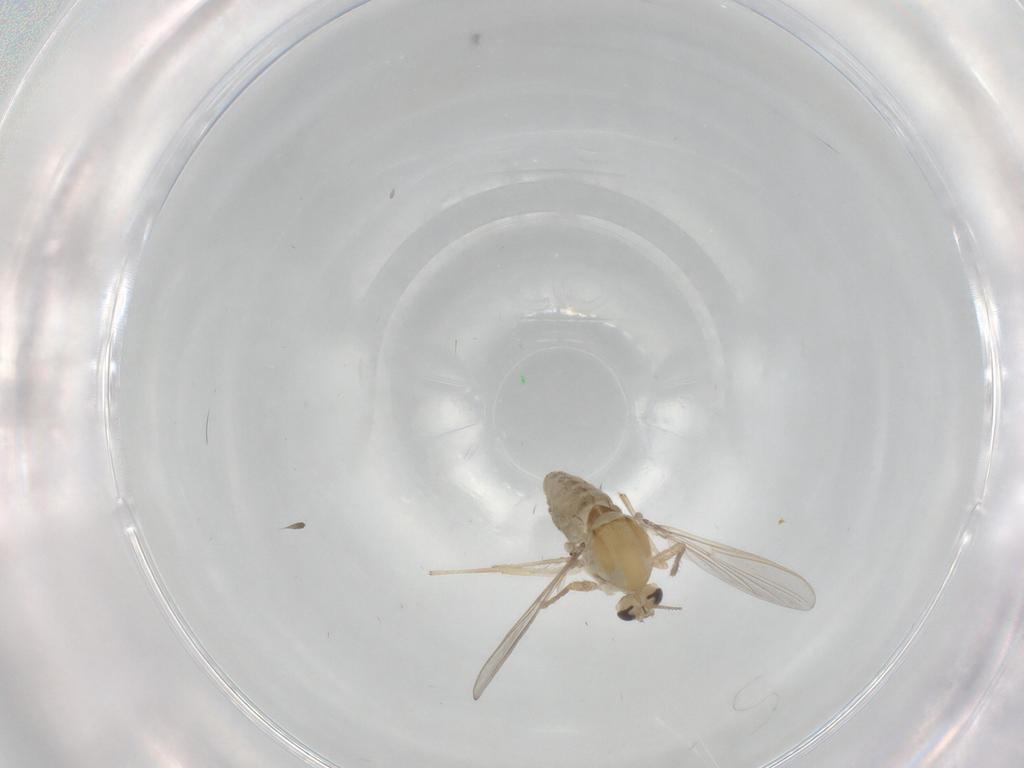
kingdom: Animalia
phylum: Arthropoda
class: Insecta
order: Diptera
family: Chironomidae
